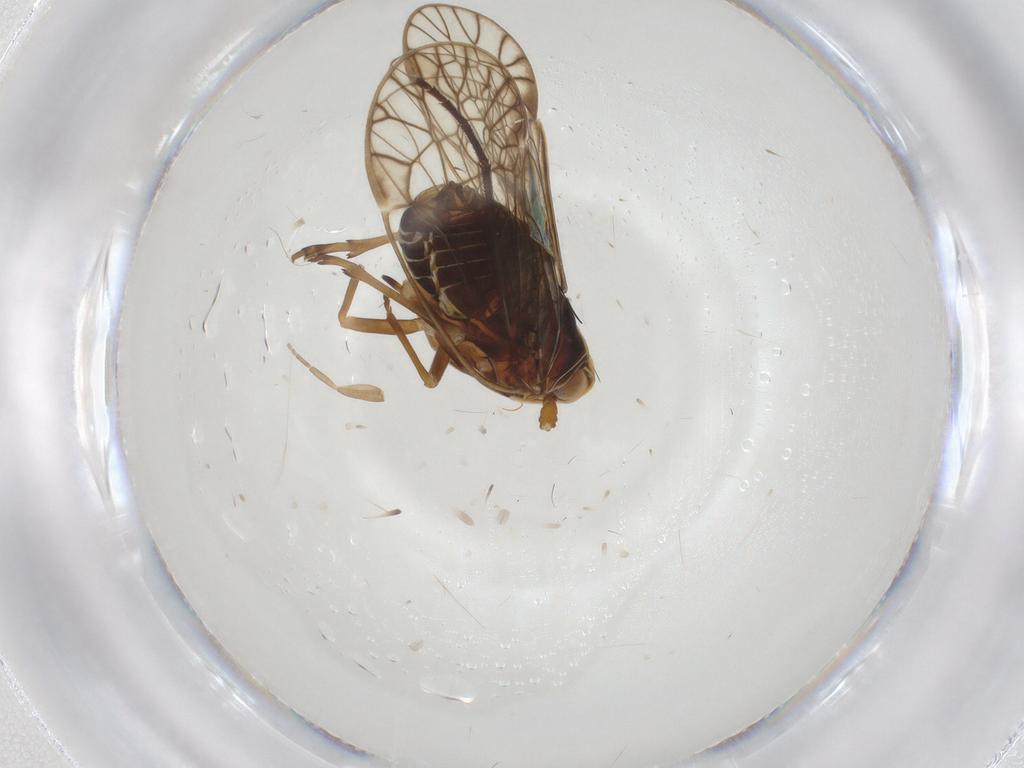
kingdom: Animalia
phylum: Arthropoda
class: Insecta
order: Hemiptera
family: Kinnaridae
